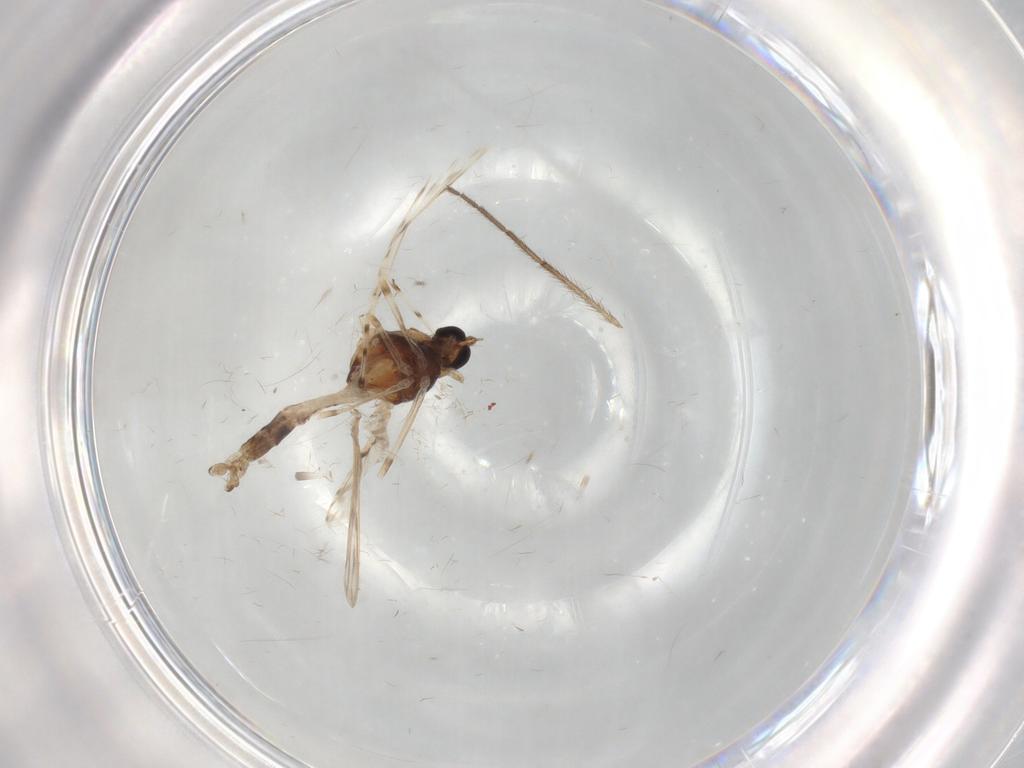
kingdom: Animalia
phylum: Arthropoda
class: Insecta
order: Diptera
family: Chironomidae
